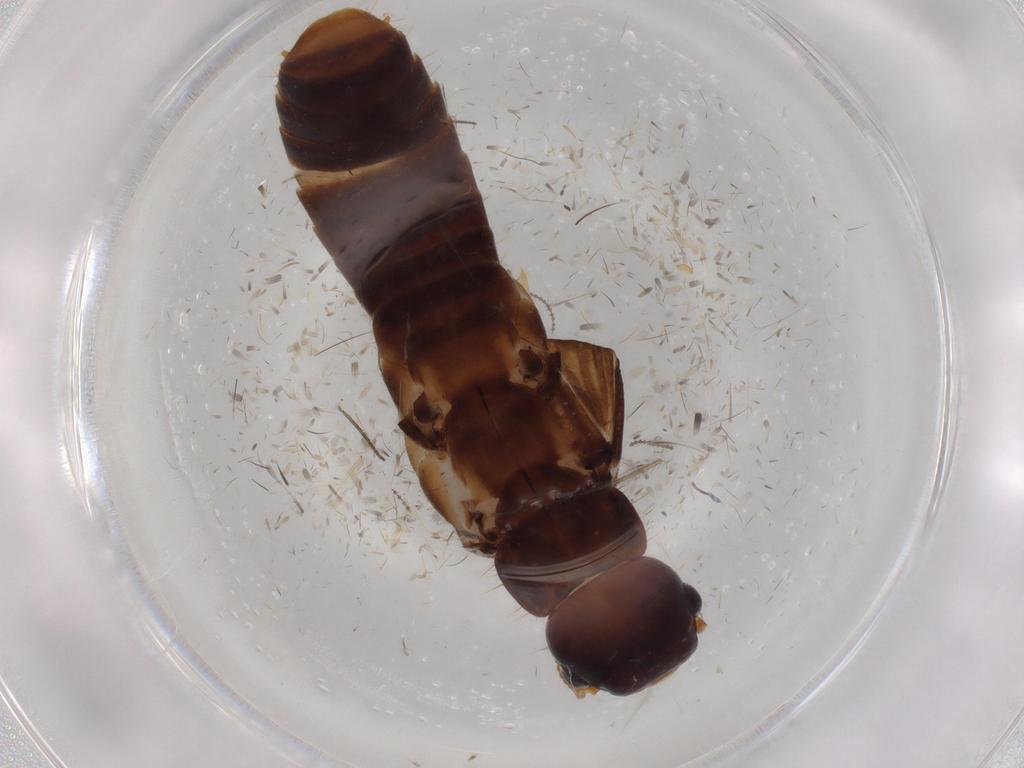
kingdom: Animalia
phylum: Arthropoda
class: Insecta
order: Blattodea
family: Kalotermitidae
